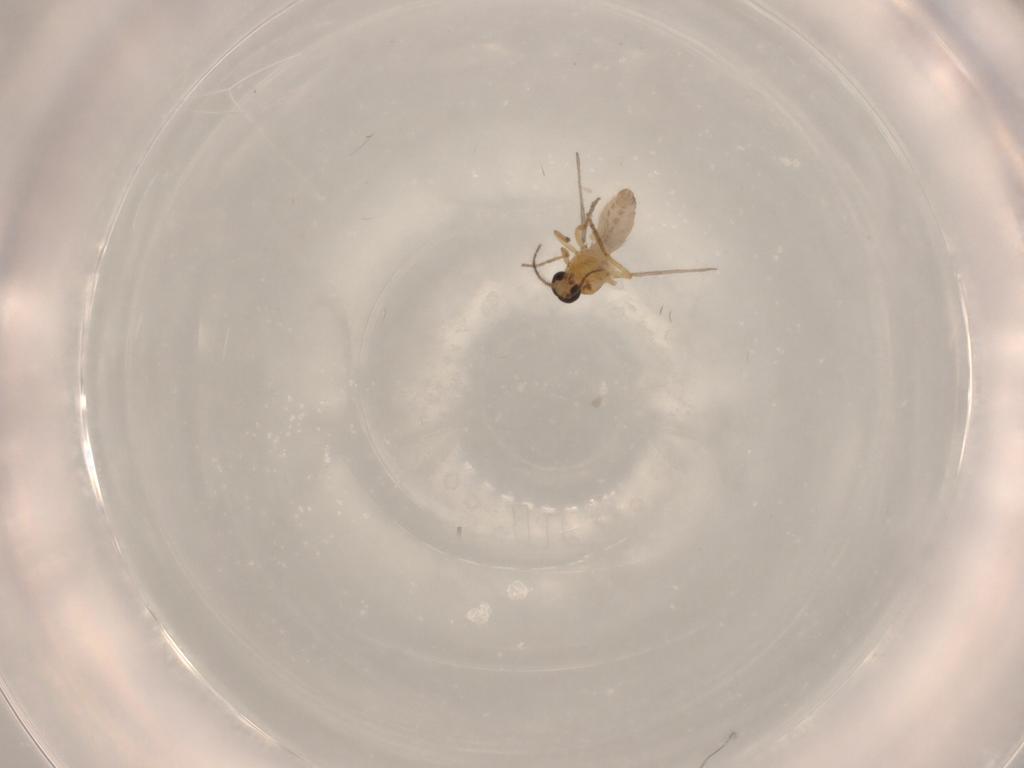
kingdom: Animalia
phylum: Arthropoda
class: Insecta
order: Diptera
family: Ceratopogonidae
